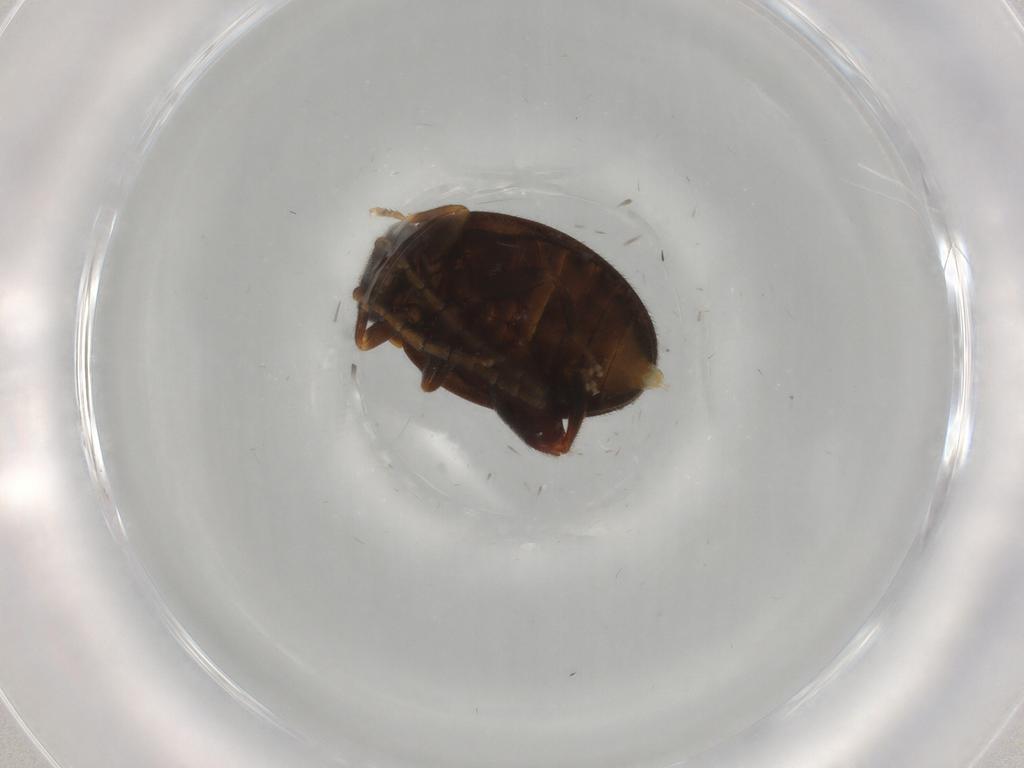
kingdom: Animalia
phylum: Arthropoda
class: Insecta
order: Coleoptera
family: Scirtidae
